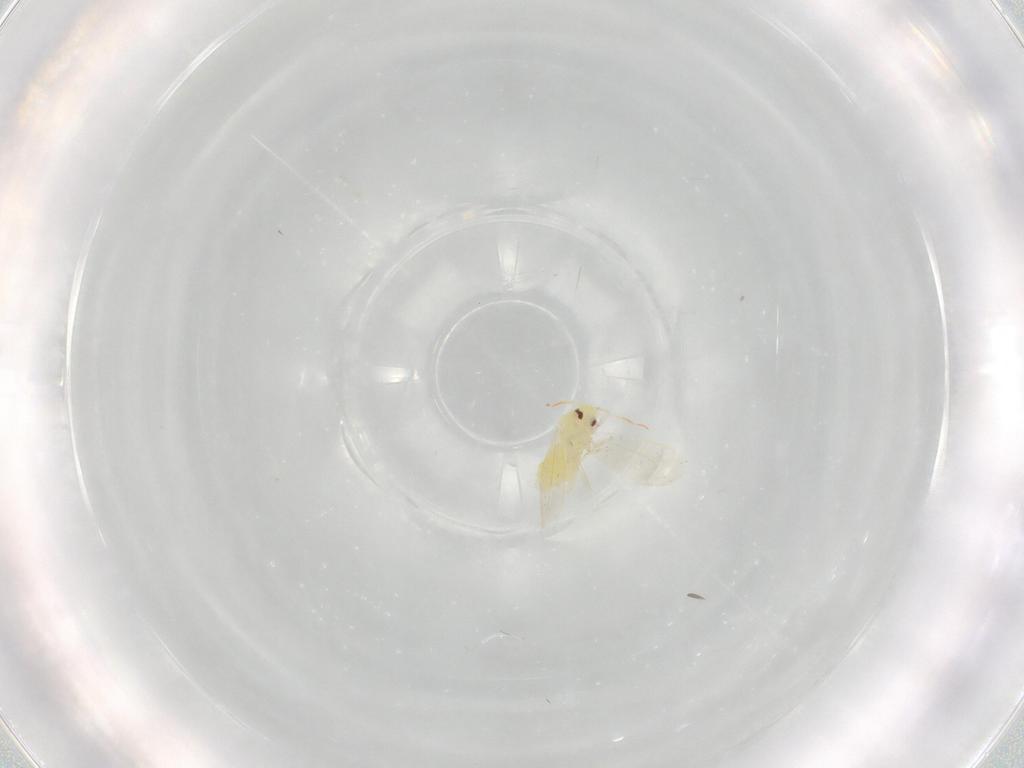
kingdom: Animalia
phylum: Arthropoda
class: Insecta
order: Hemiptera
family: Aleyrodidae
